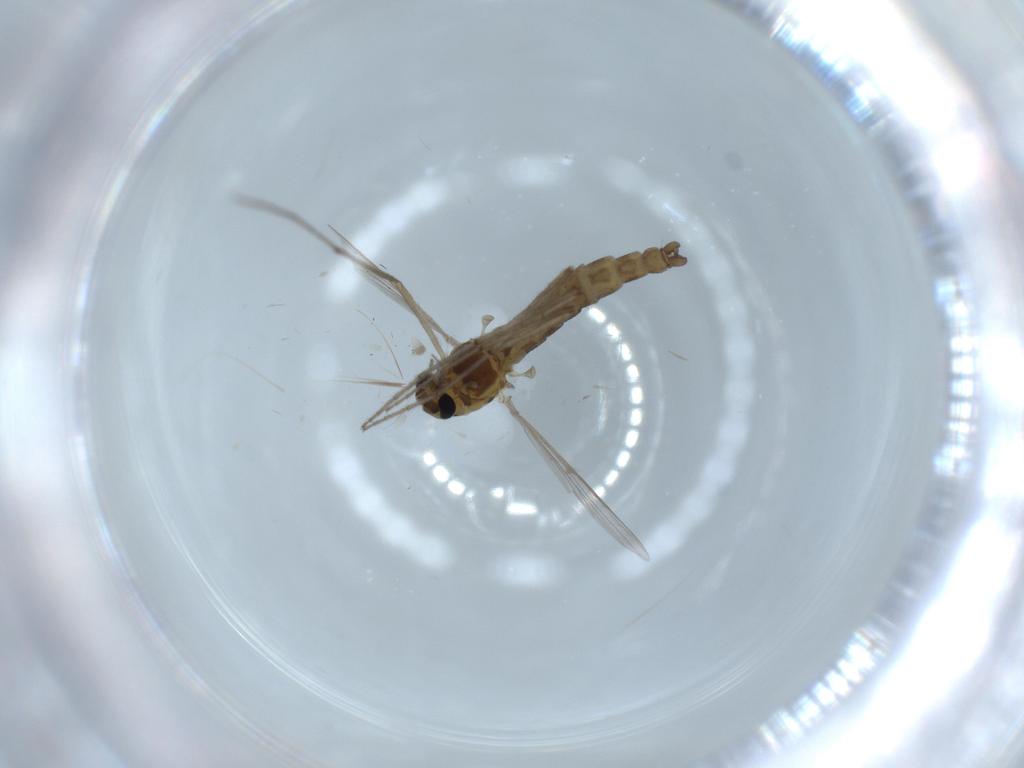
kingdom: Animalia
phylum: Arthropoda
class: Insecta
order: Diptera
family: Chironomidae
